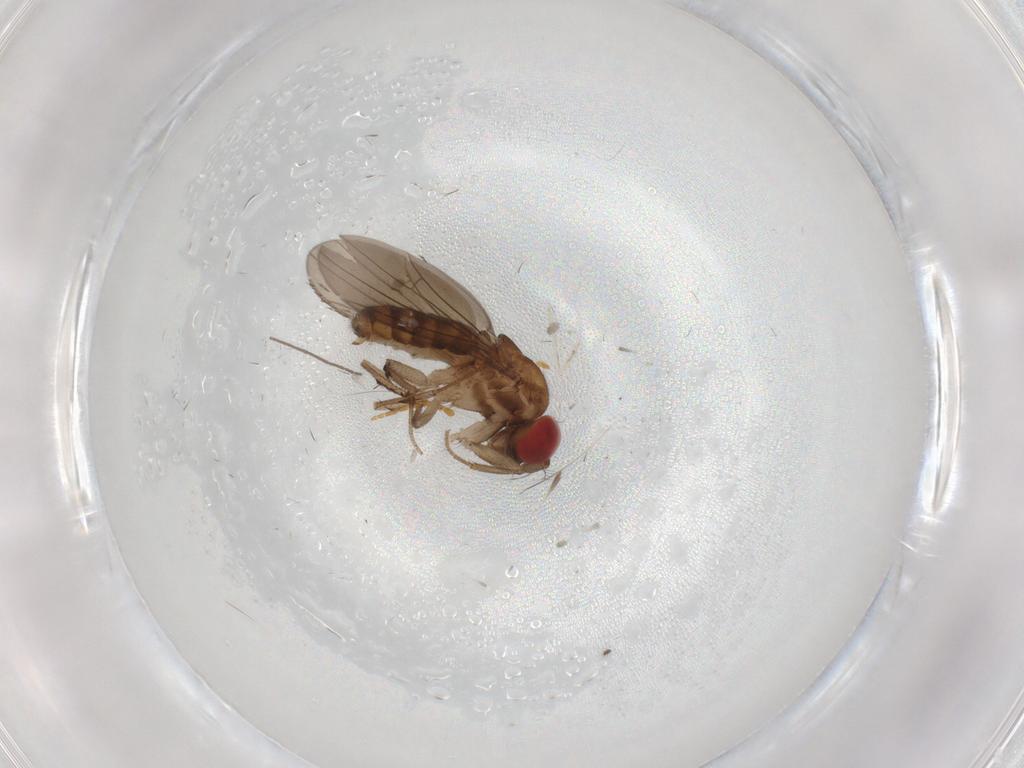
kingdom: Animalia
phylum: Arthropoda
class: Insecta
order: Diptera
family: Drosophilidae
